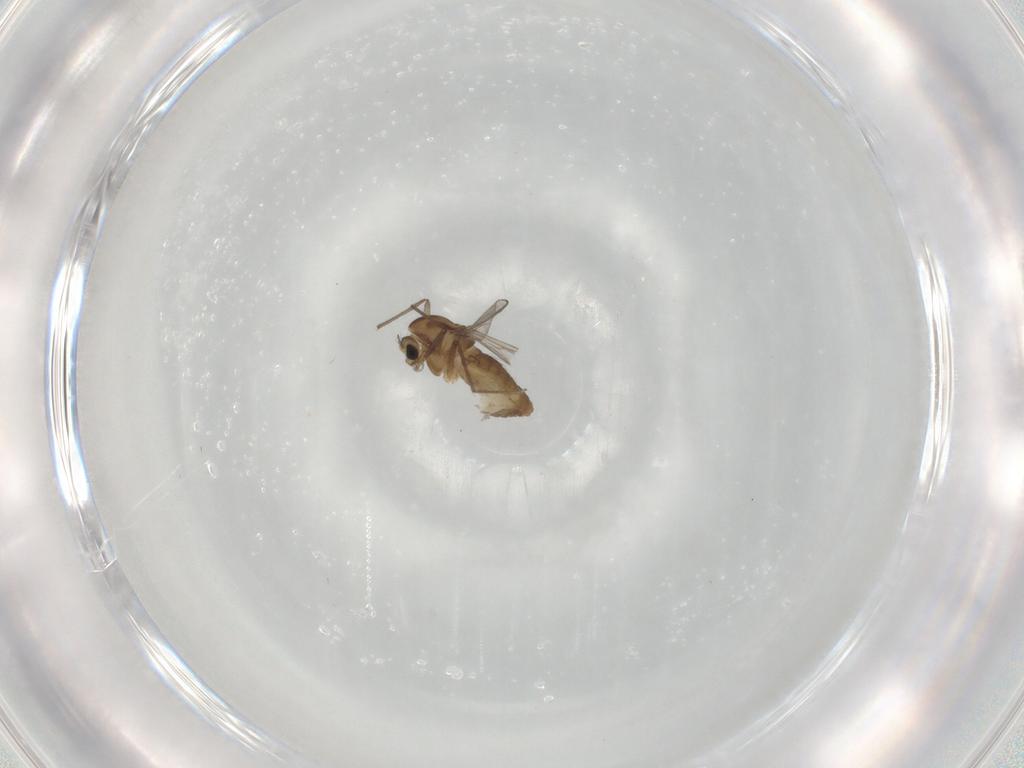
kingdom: Animalia
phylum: Arthropoda
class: Insecta
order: Diptera
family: Chironomidae
